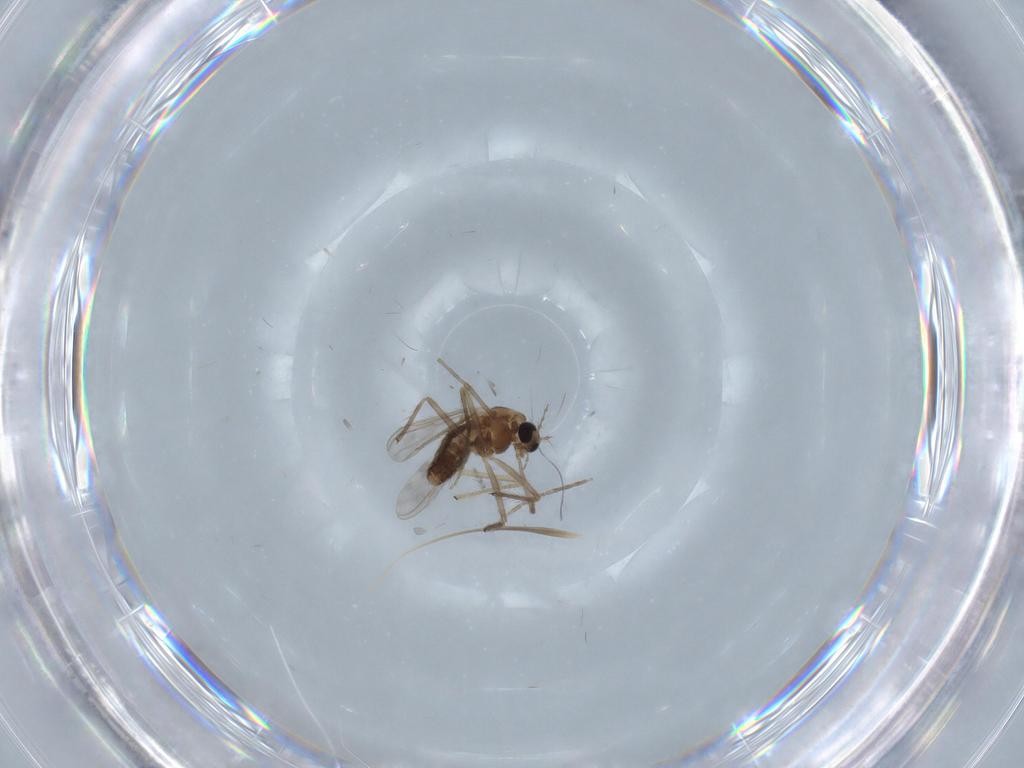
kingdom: Animalia
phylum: Arthropoda
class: Insecta
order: Diptera
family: Chironomidae
